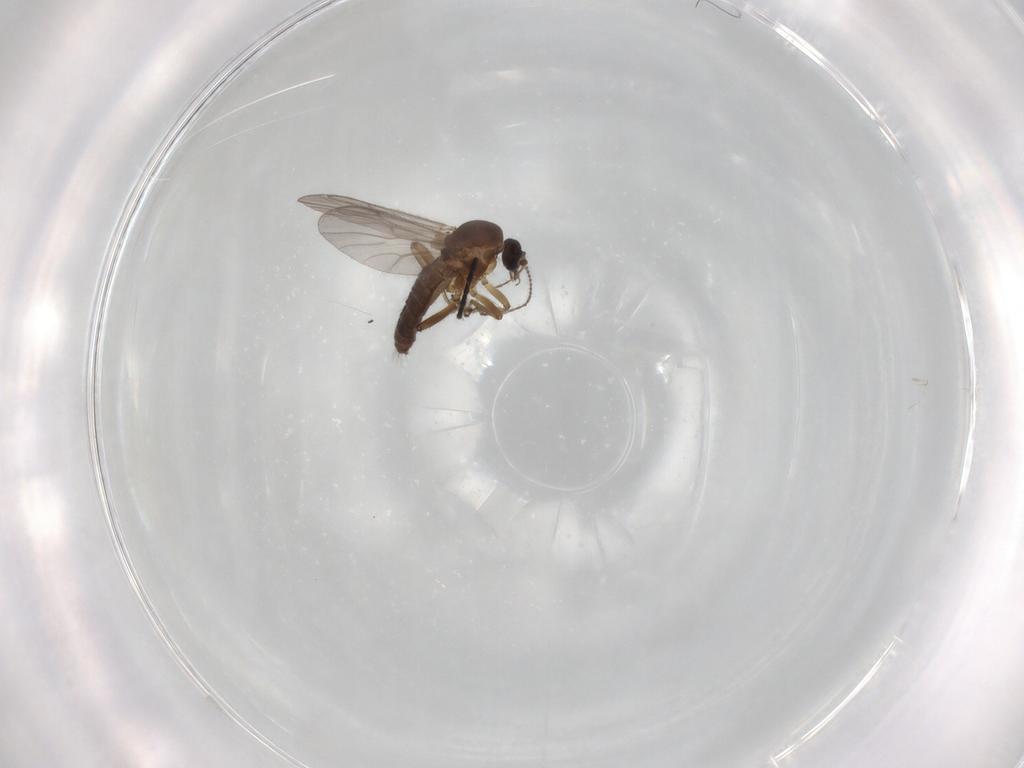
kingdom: Animalia
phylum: Arthropoda
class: Insecta
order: Diptera
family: Ceratopogonidae
